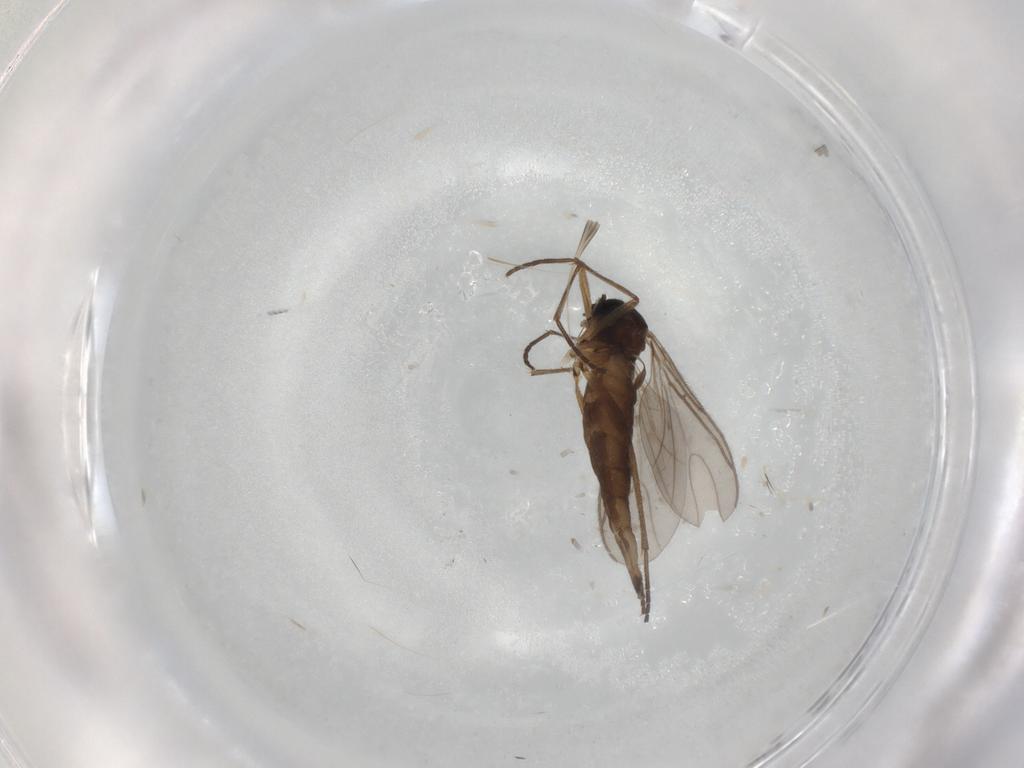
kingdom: Animalia
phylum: Arthropoda
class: Insecta
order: Diptera
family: Sciaridae
